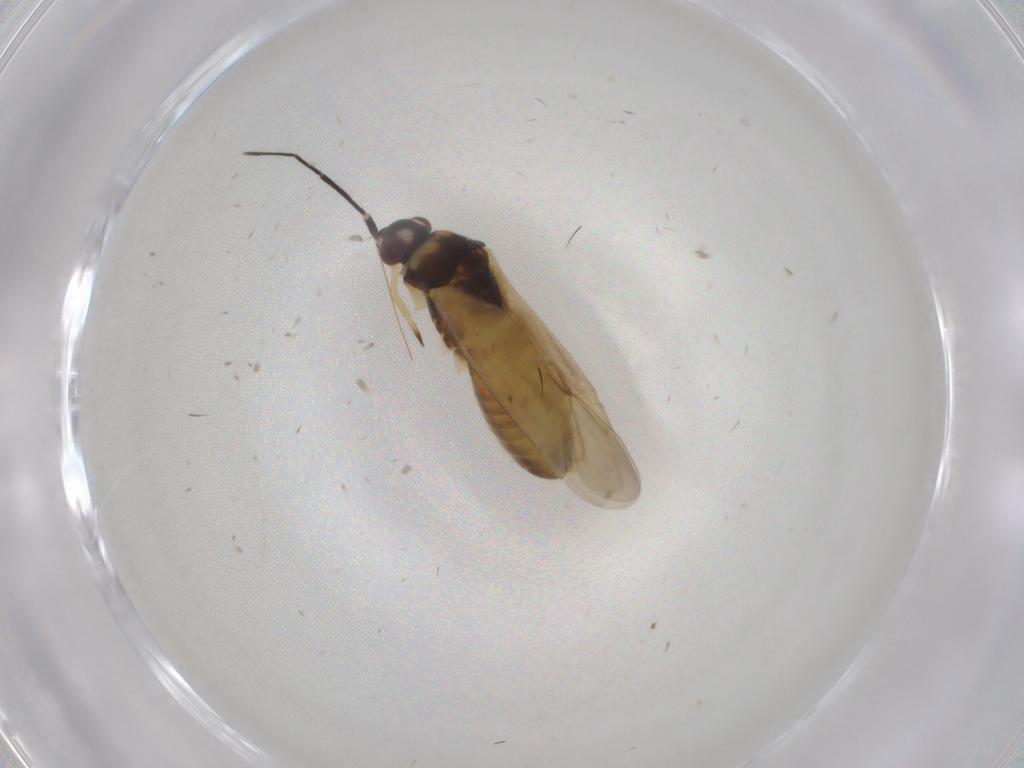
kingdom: Animalia
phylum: Arthropoda
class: Insecta
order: Hemiptera
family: Miridae
